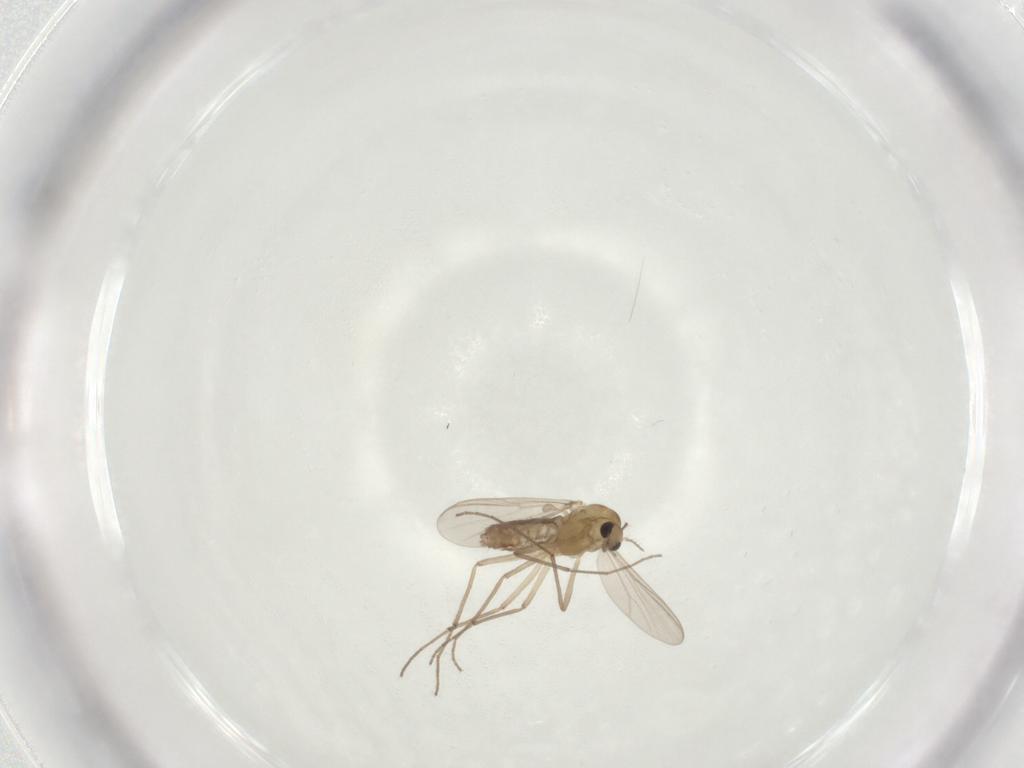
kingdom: Animalia
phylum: Arthropoda
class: Insecta
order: Diptera
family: Chironomidae
